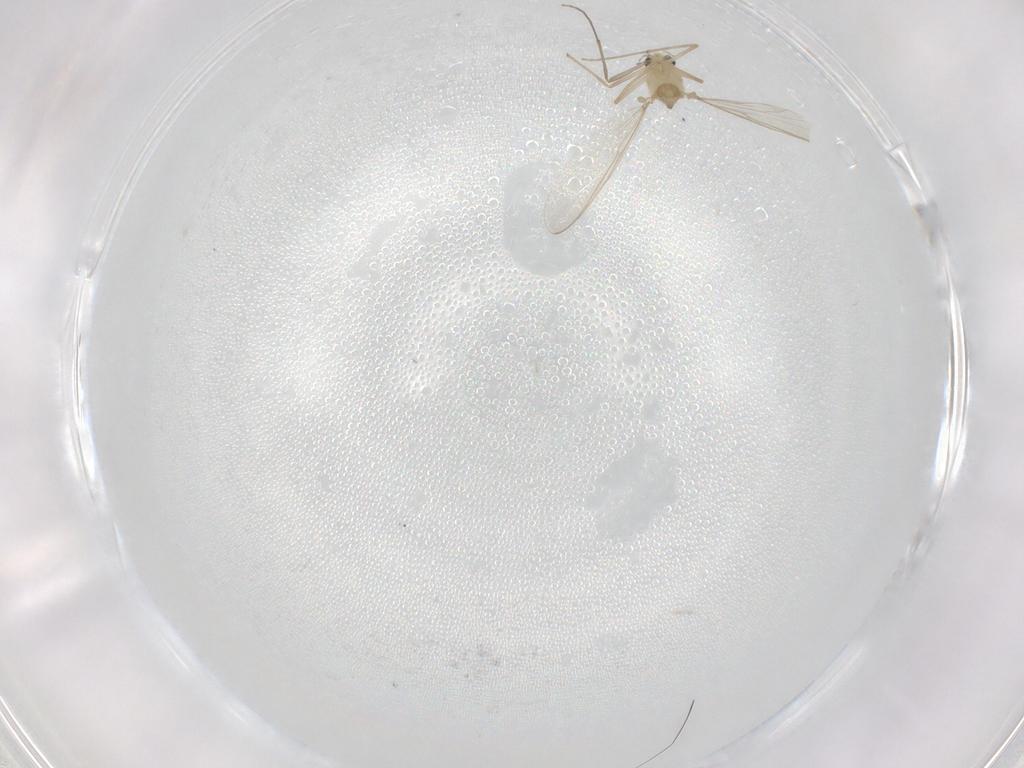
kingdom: Animalia
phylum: Arthropoda
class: Insecta
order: Diptera
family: Chironomidae
